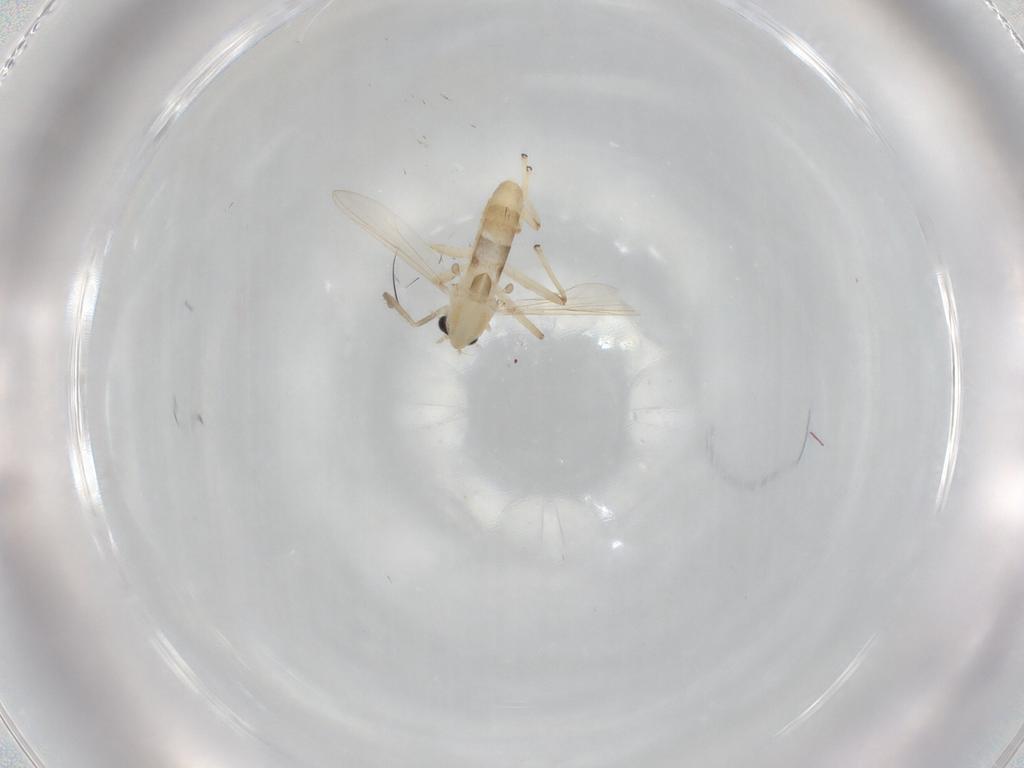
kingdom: Animalia
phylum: Arthropoda
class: Insecta
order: Diptera
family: Chironomidae
